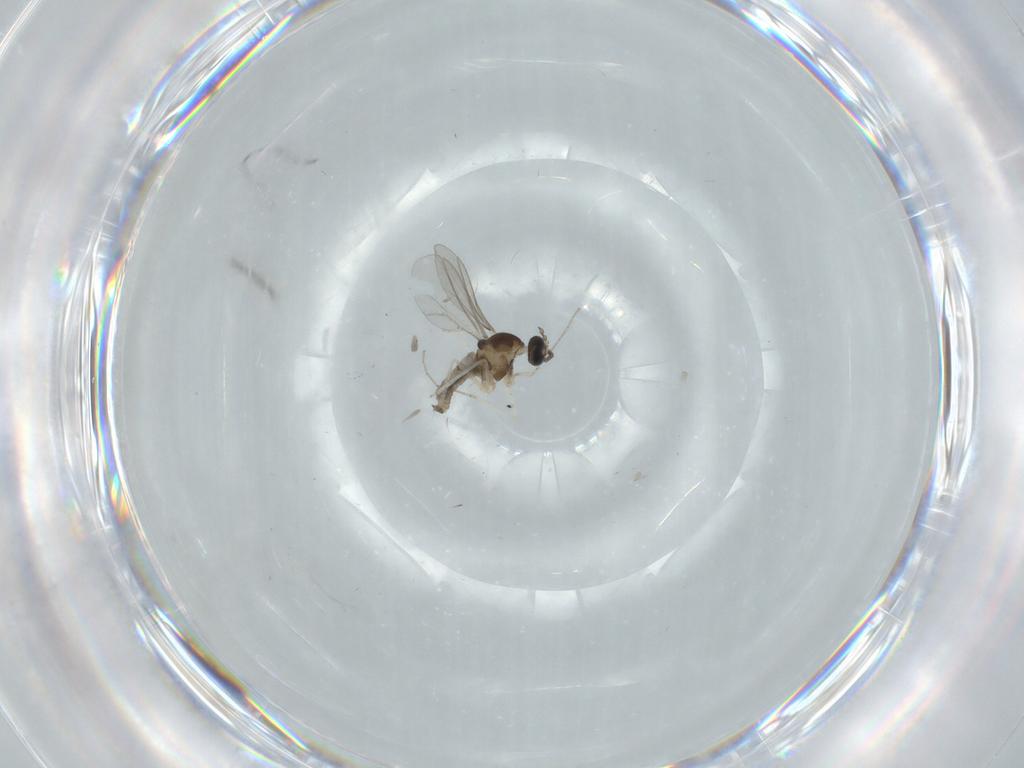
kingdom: Animalia
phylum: Arthropoda
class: Insecta
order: Diptera
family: Cecidomyiidae
